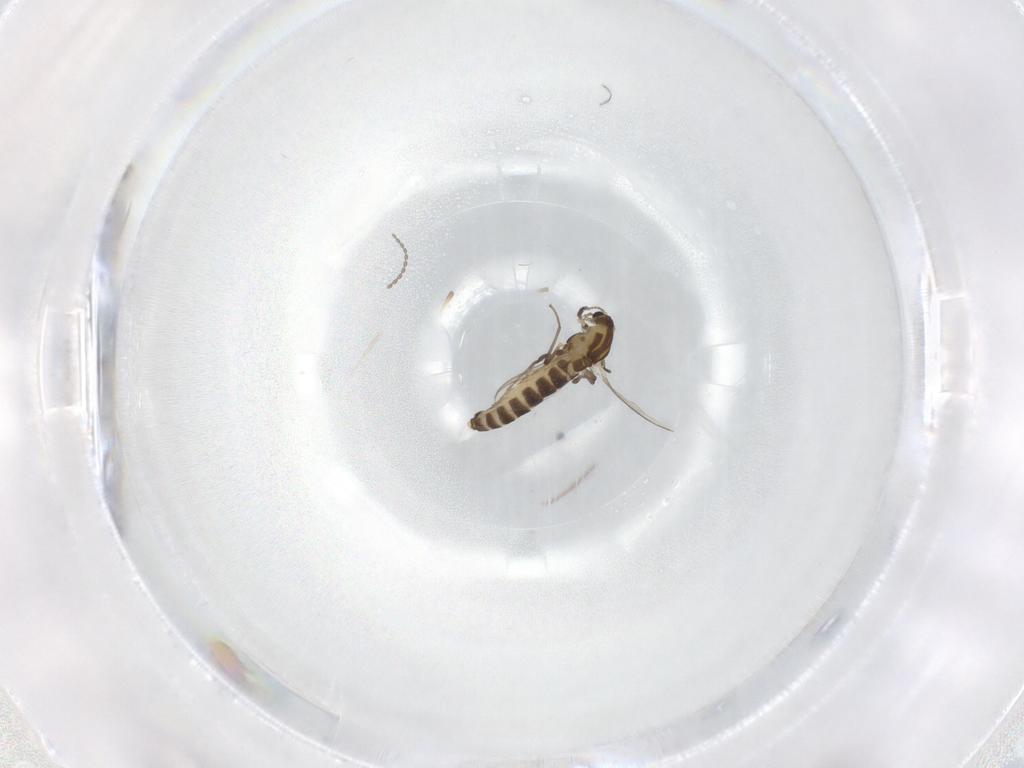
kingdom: Animalia
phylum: Arthropoda
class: Insecta
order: Diptera
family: Chironomidae
